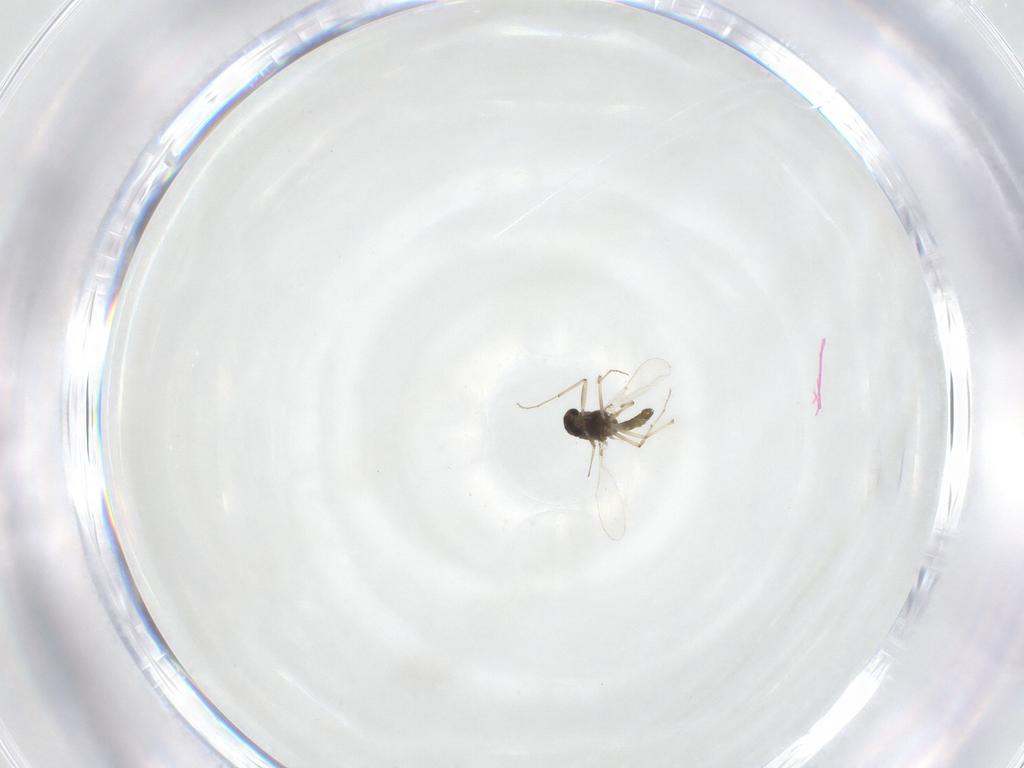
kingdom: Animalia
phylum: Arthropoda
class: Insecta
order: Diptera
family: Chironomidae
